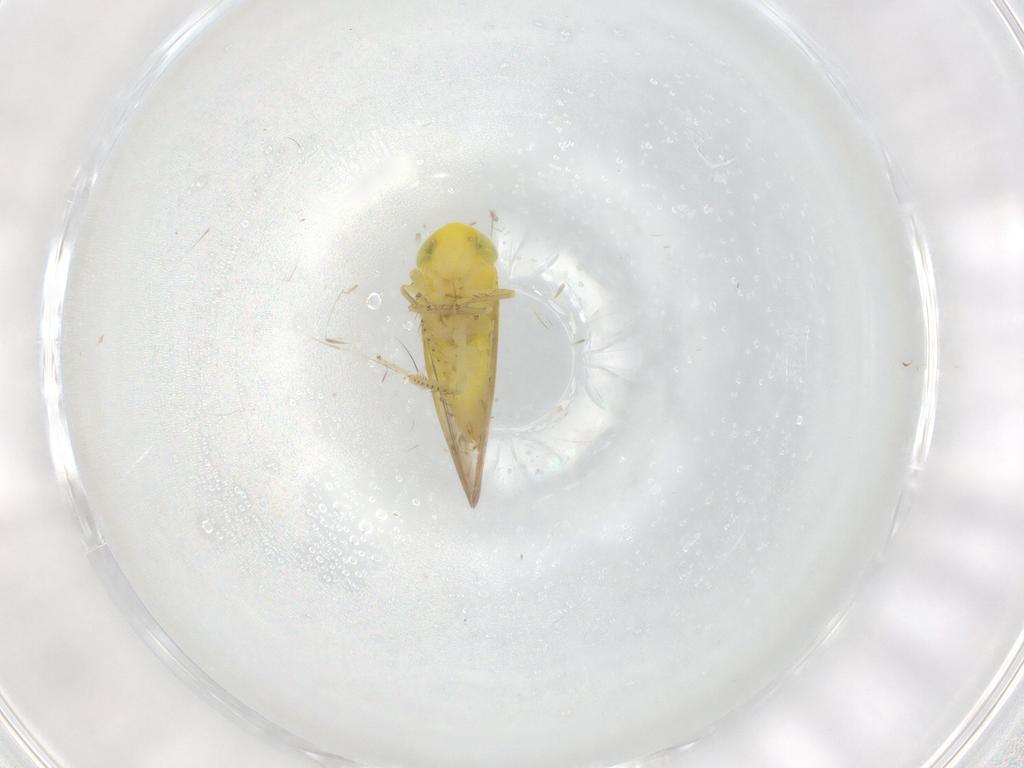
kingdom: Animalia
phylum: Arthropoda
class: Insecta
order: Hemiptera
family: Cicadellidae
